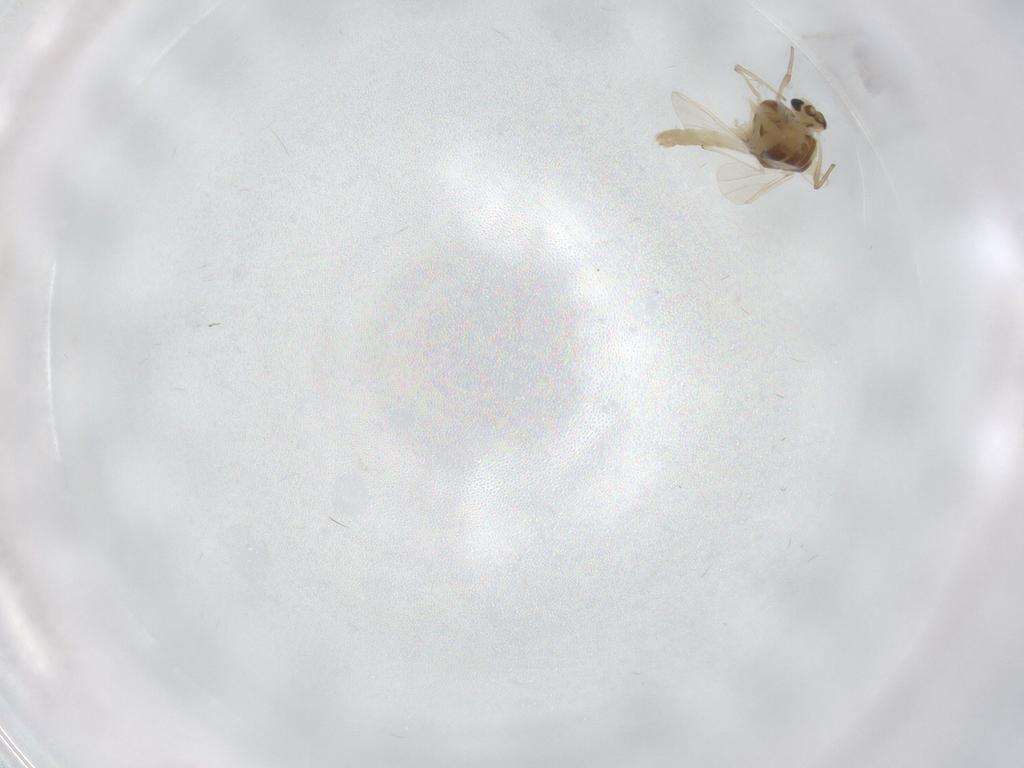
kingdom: Animalia
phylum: Arthropoda
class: Insecta
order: Diptera
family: Chironomidae
